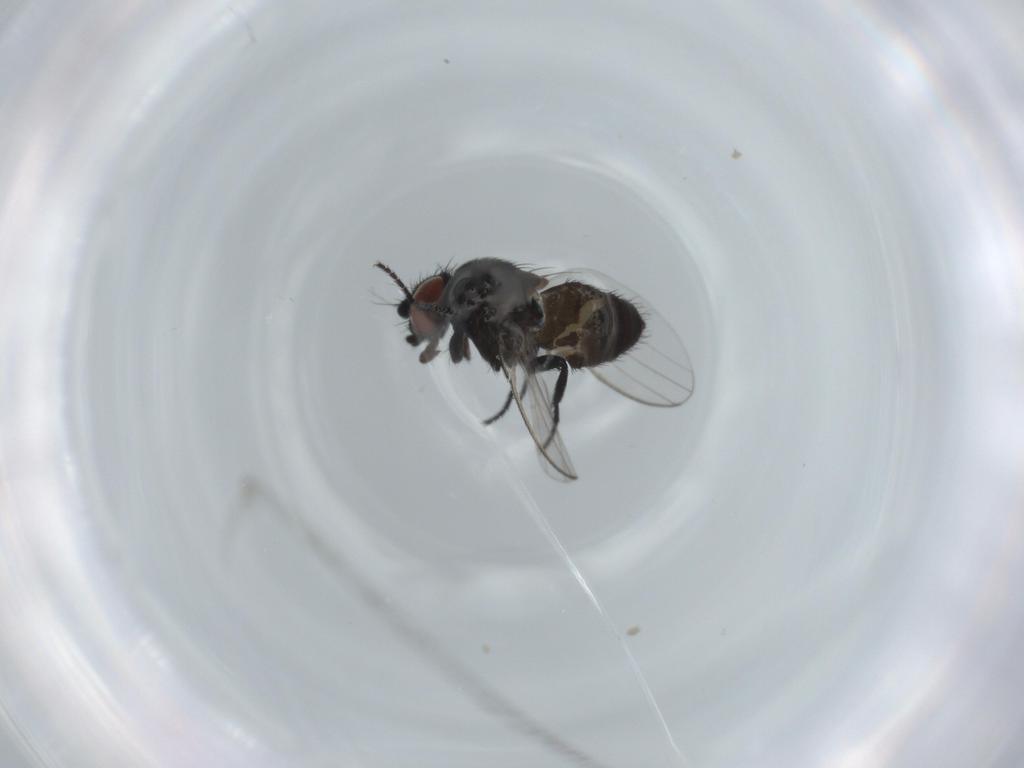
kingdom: Animalia
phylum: Arthropoda
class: Insecta
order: Diptera
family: Milichiidae
